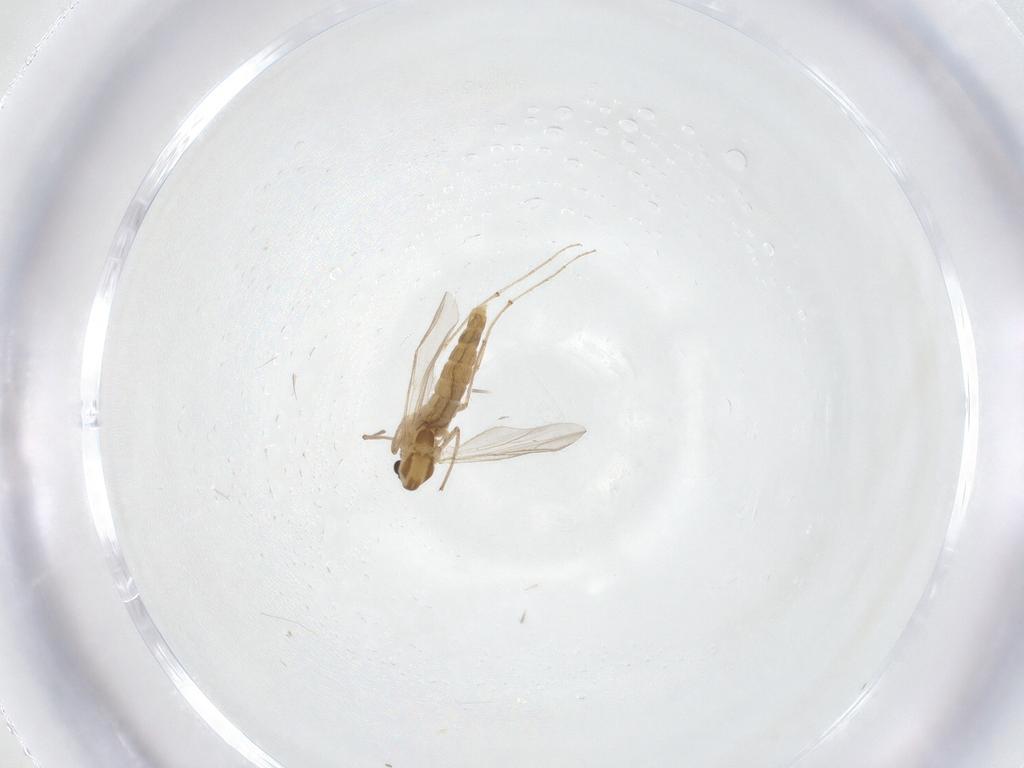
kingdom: Animalia
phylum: Arthropoda
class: Insecta
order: Diptera
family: Chironomidae
